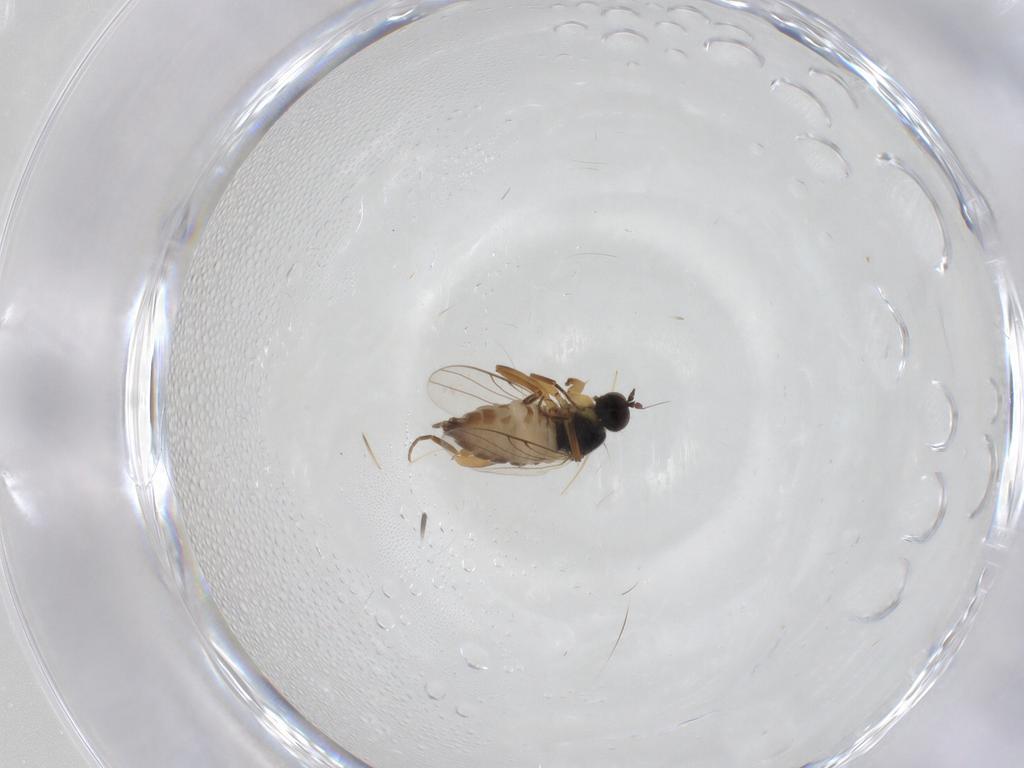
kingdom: Animalia
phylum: Arthropoda
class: Insecta
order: Diptera
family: Hybotidae
